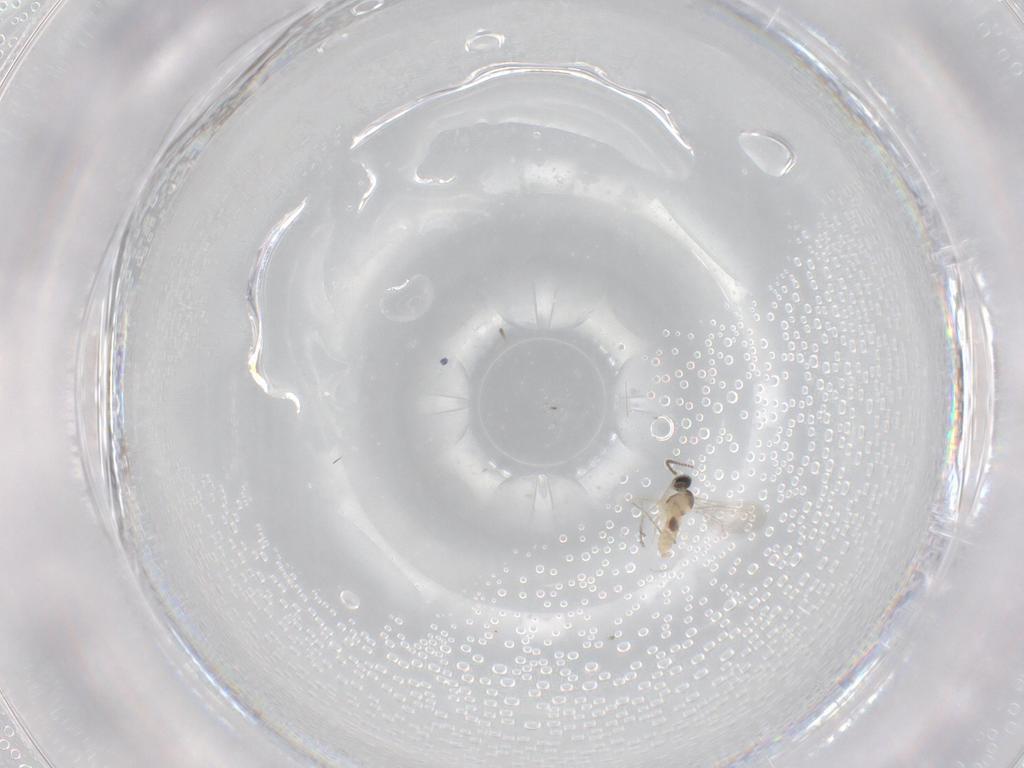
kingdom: Animalia
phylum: Arthropoda
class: Insecta
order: Diptera
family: Cecidomyiidae
